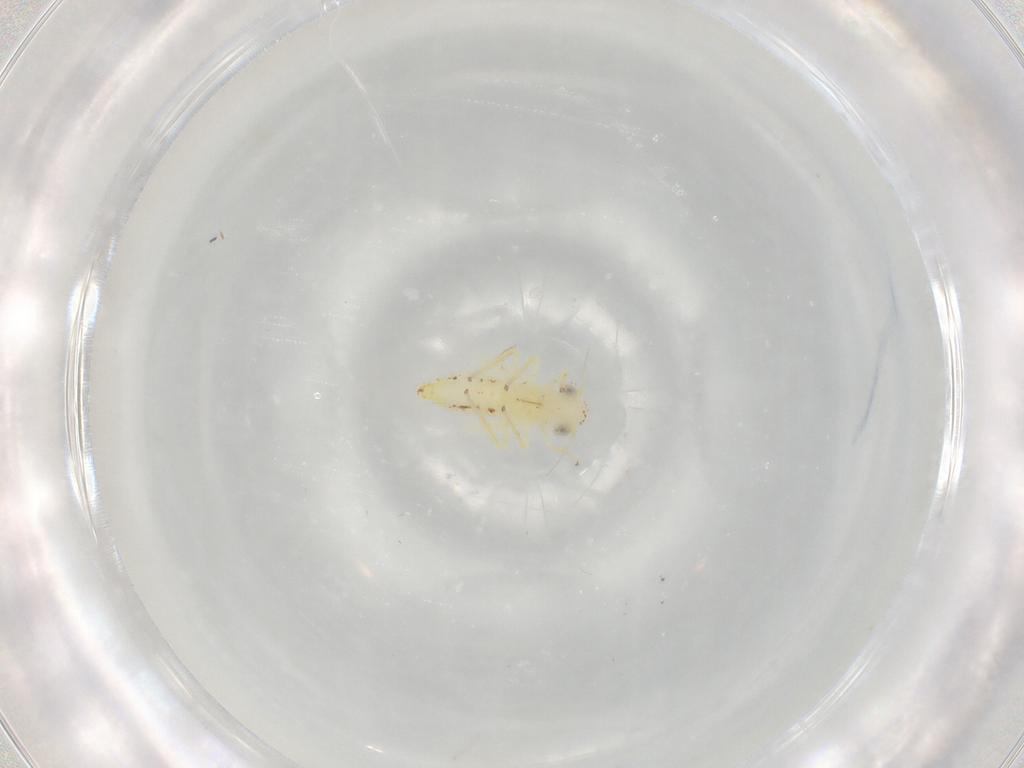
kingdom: Animalia
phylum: Arthropoda
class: Insecta
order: Hemiptera
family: Cicadellidae
